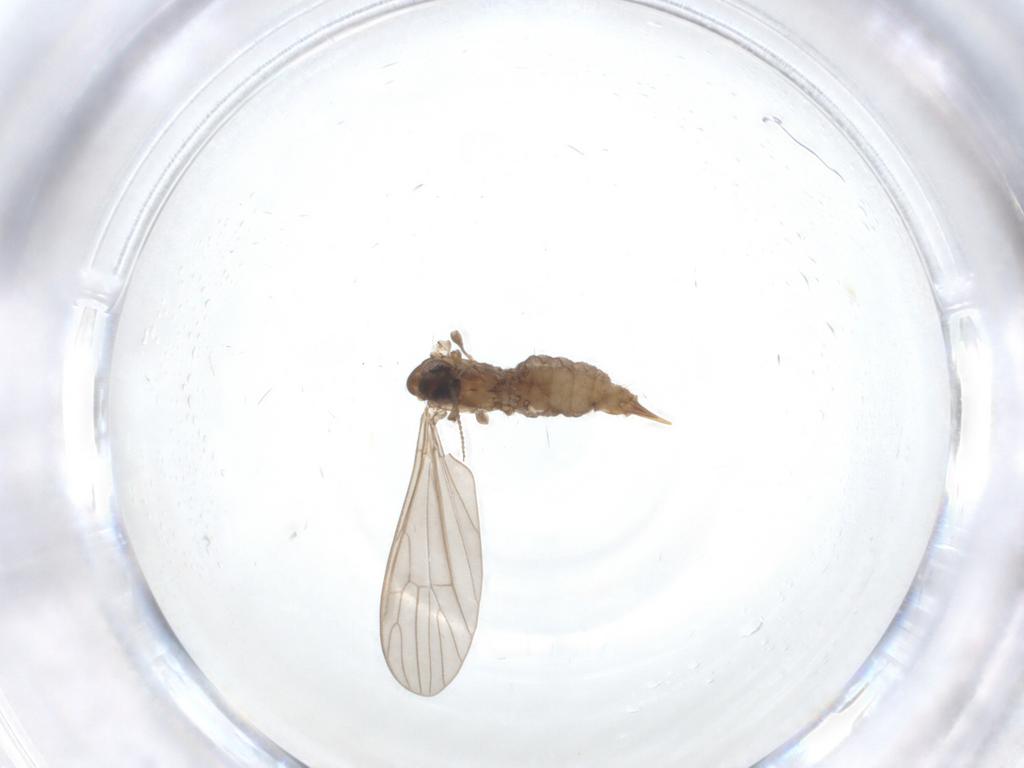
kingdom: Animalia
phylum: Arthropoda
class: Insecta
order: Diptera
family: Limoniidae
